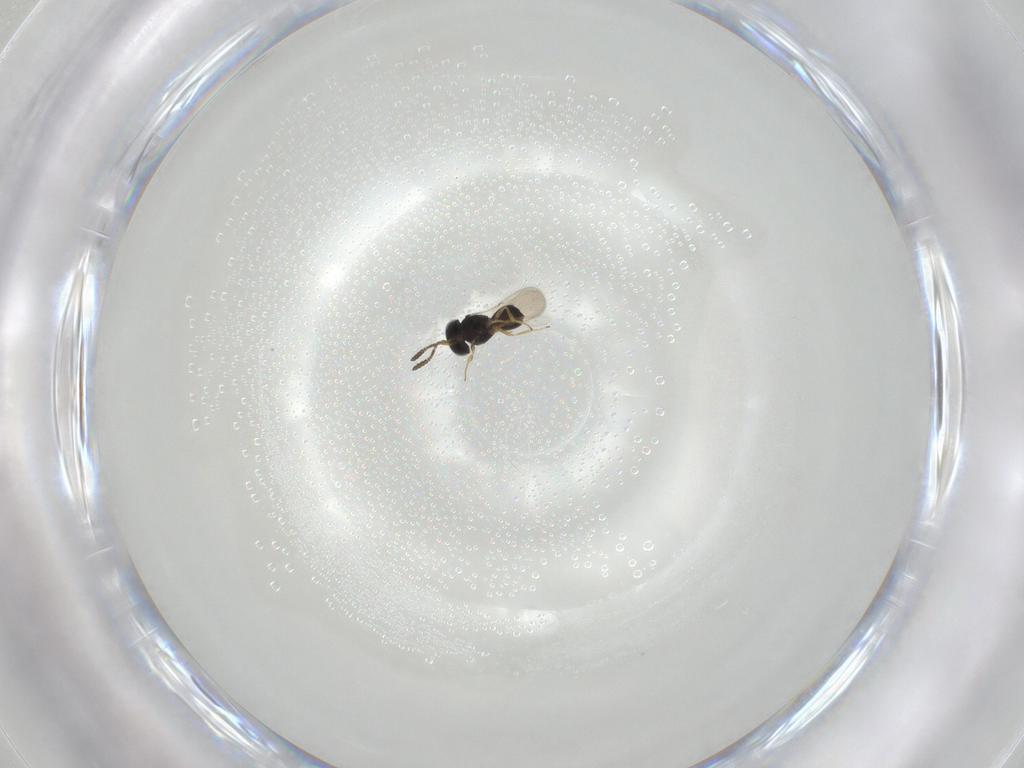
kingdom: Animalia
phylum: Arthropoda
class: Insecta
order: Hymenoptera
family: Scelionidae
